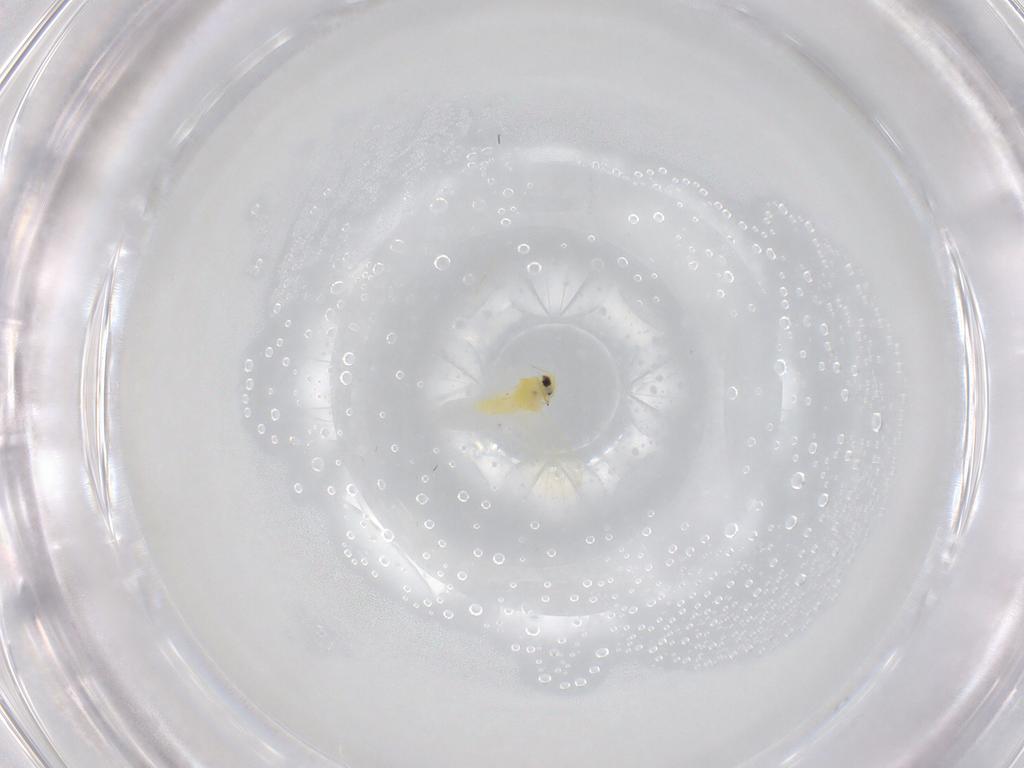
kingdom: Animalia
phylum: Arthropoda
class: Insecta
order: Hemiptera
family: Aleyrodidae
